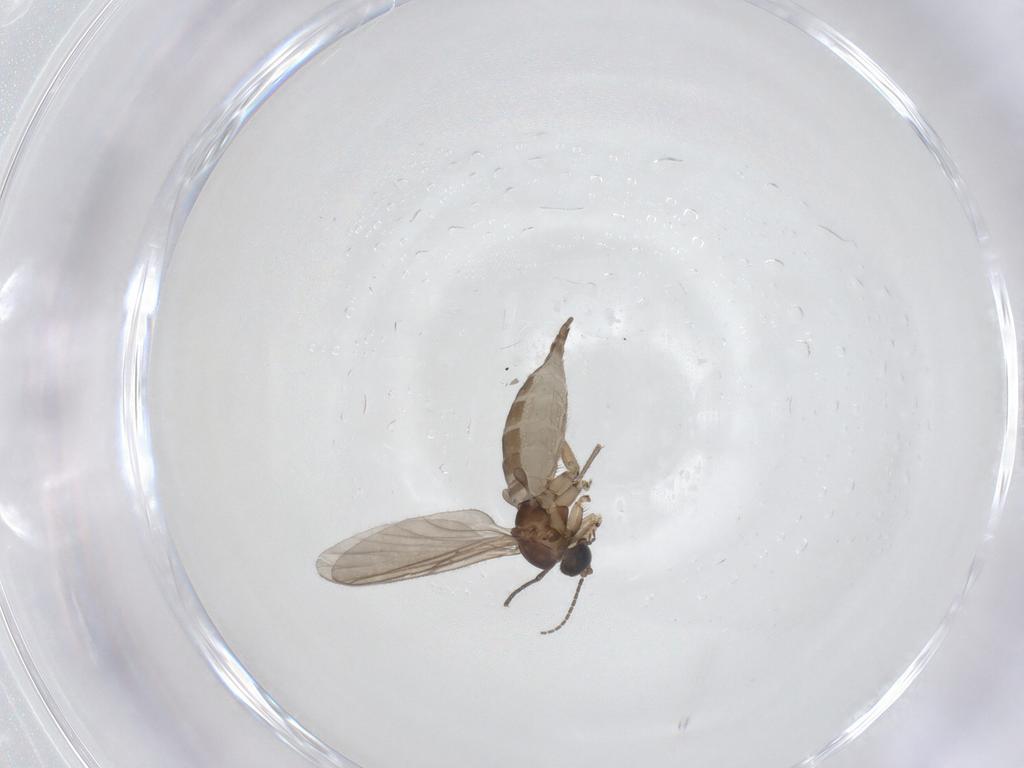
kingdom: Animalia
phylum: Arthropoda
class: Insecta
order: Diptera
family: Sciaridae
